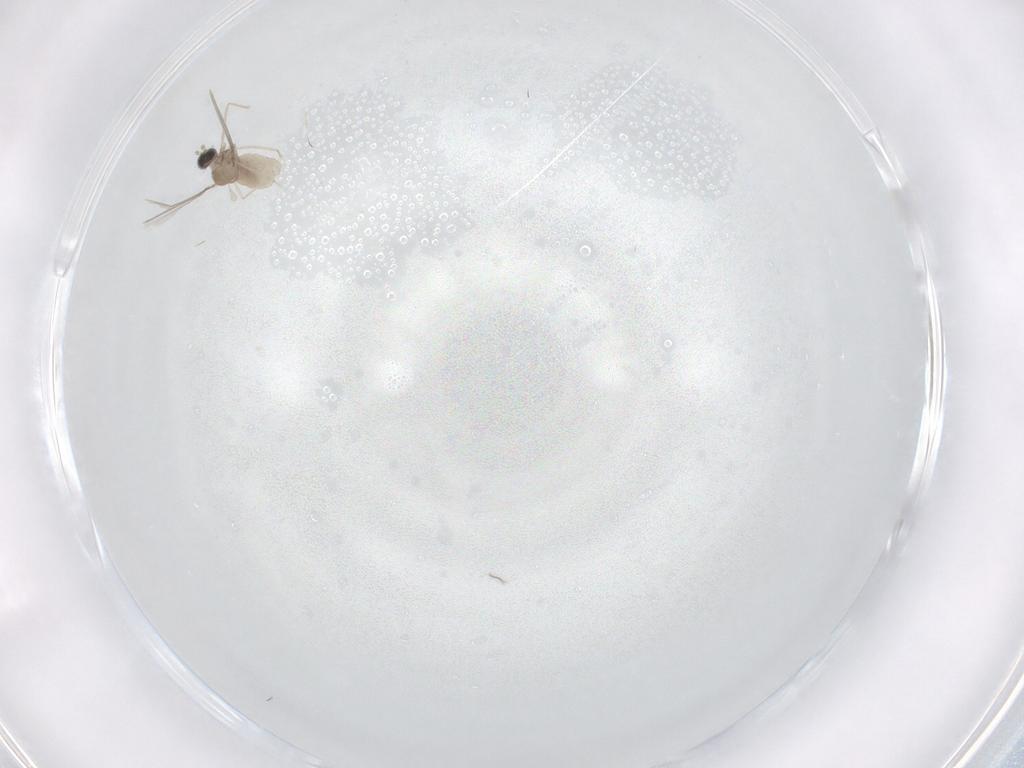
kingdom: Animalia
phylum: Arthropoda
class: Insecta
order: Diptera
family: Cecidomyiidae
